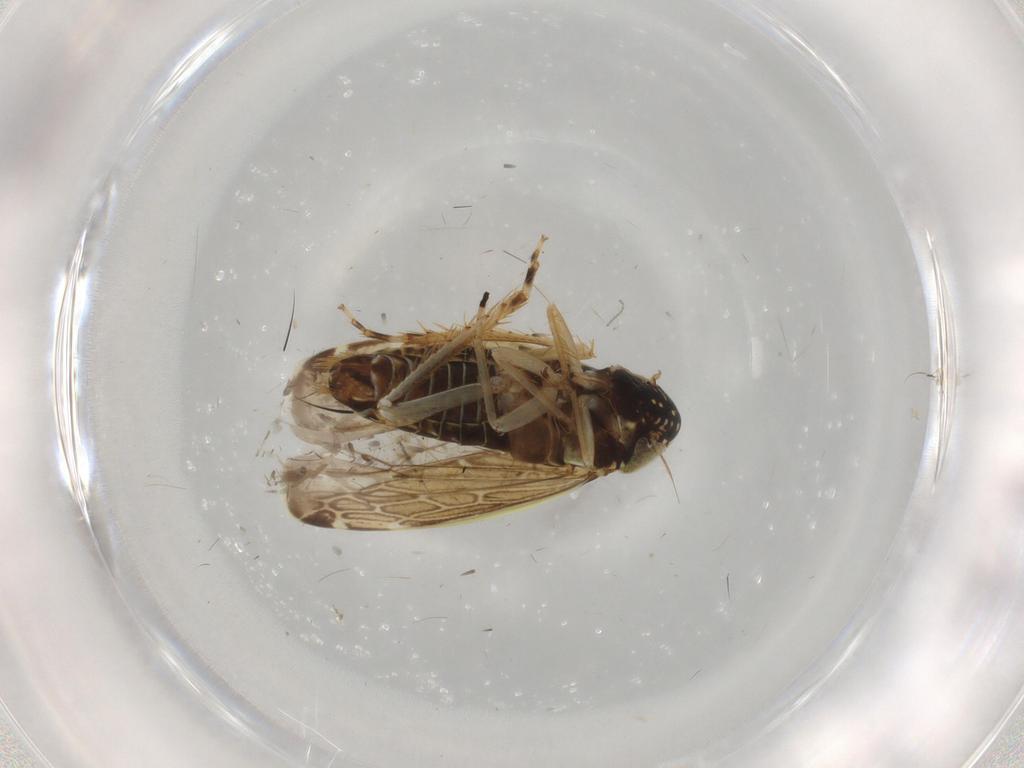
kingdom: Animalia
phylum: Arthropoda
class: Insecta
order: Hemiptera
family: Cicadellidae
